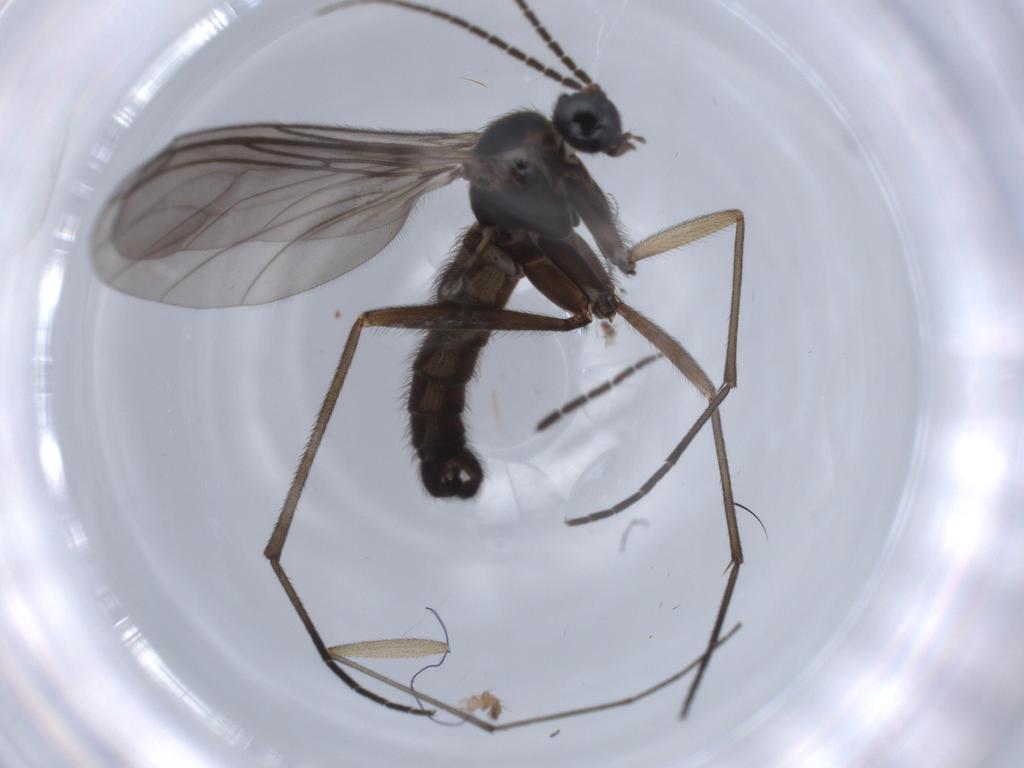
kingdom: Animalia
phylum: Arthropoda
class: Insecta
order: Diptera
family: Sciaridae
